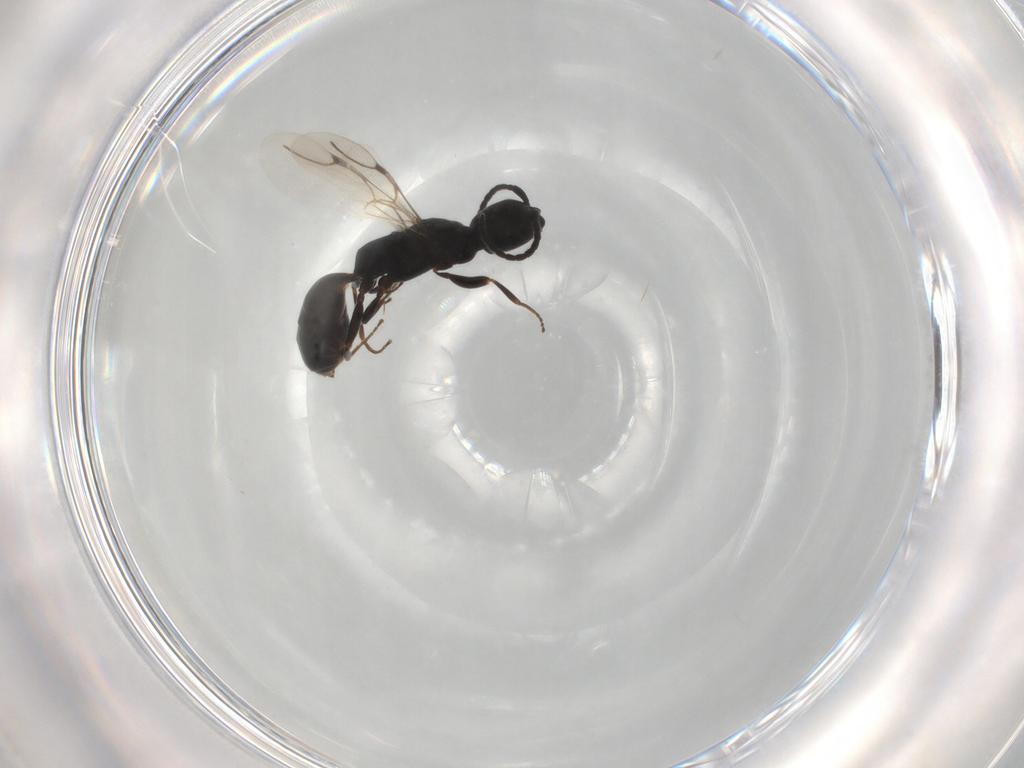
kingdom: Animalia
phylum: Arthropoda
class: Insecta
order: Hymenoptera
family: Bethylidae
